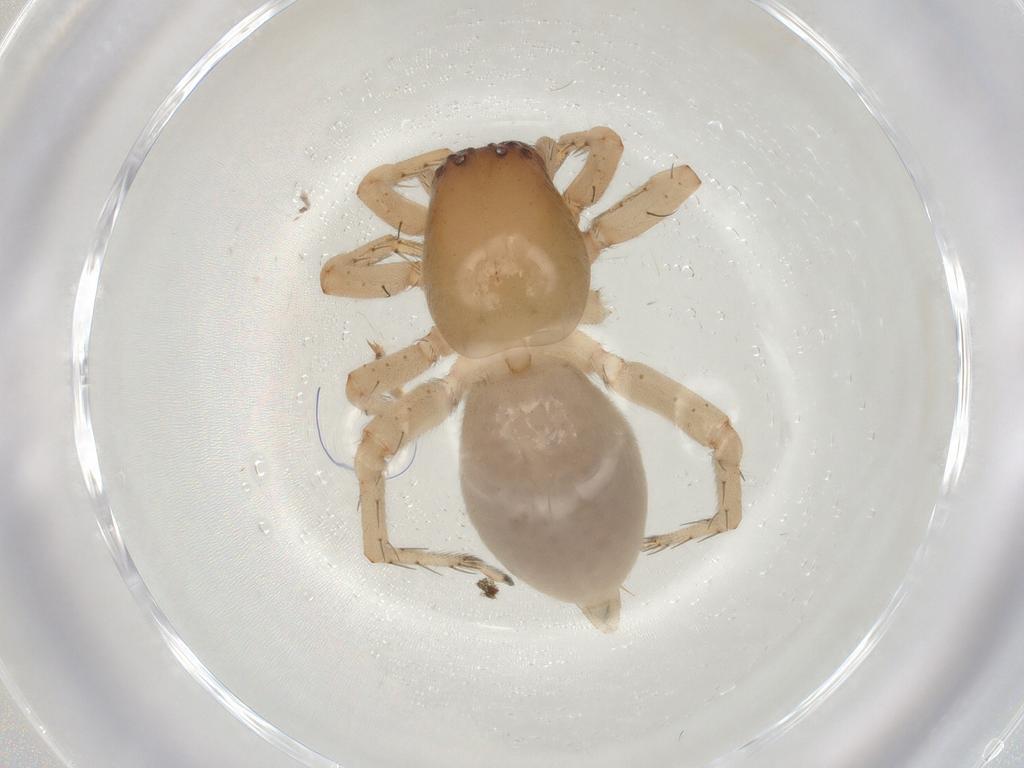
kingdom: Animalia
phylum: Arthropoda
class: Arachnida
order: Araneae
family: Clubionidae
